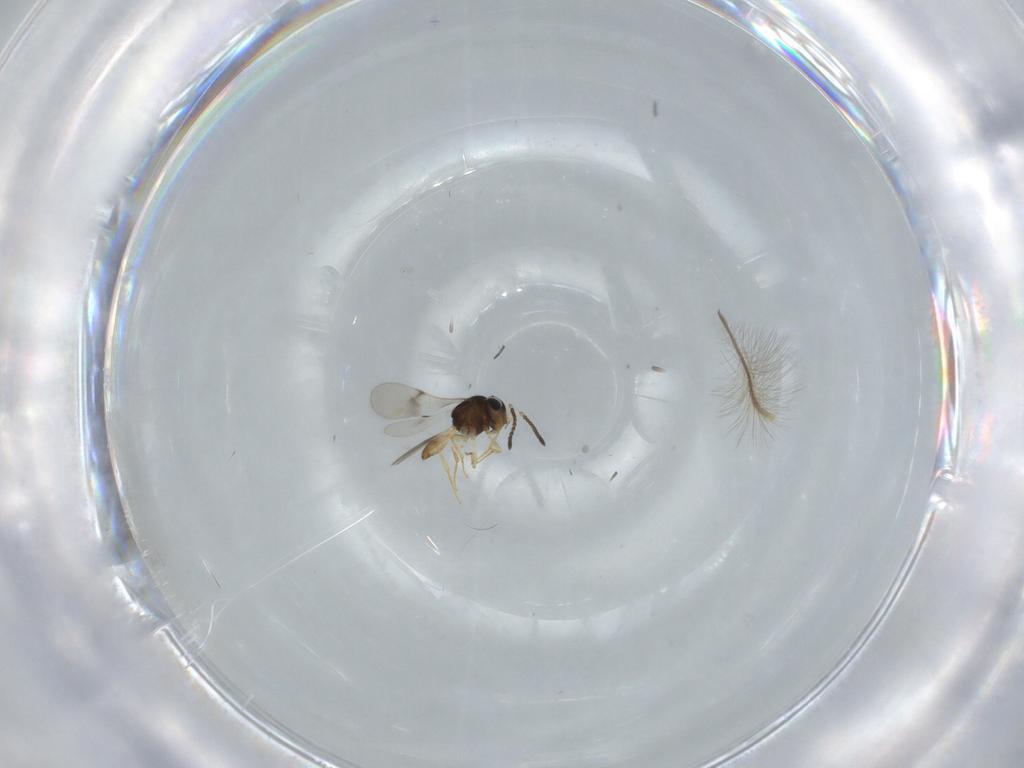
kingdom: Animalia
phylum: Arthropoda
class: Insecta
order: Hymenoptera
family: Scelionidae
